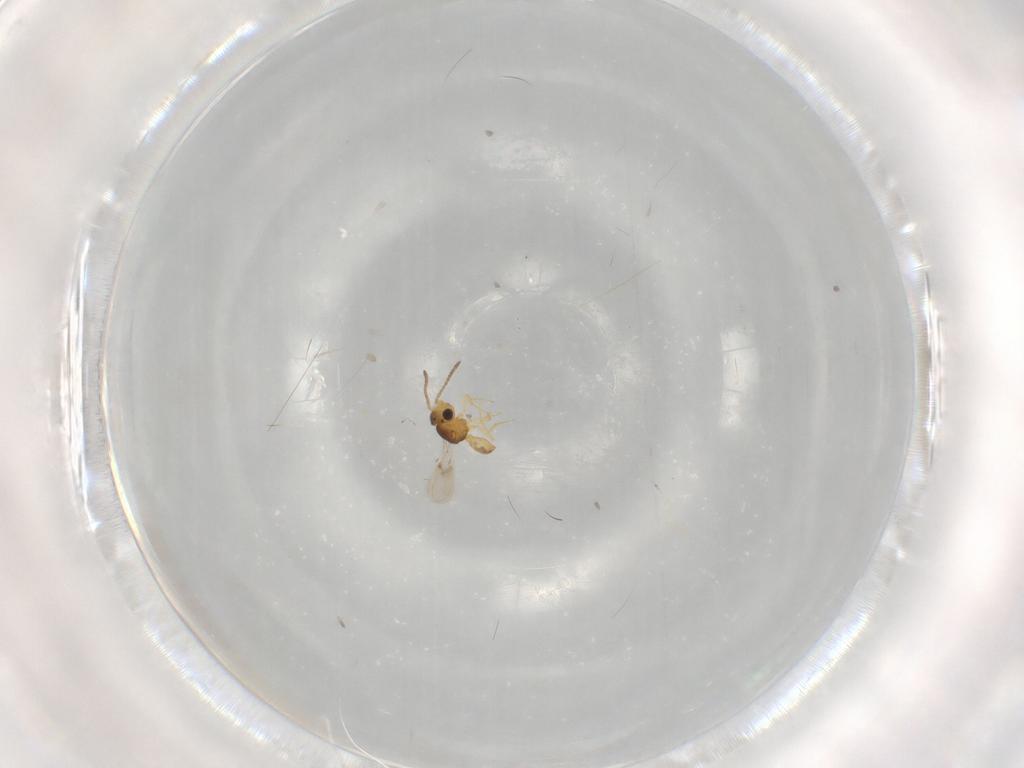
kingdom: Animalia
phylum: Arthropoda
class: Insecta
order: Hymenoptera
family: Scelionidae
